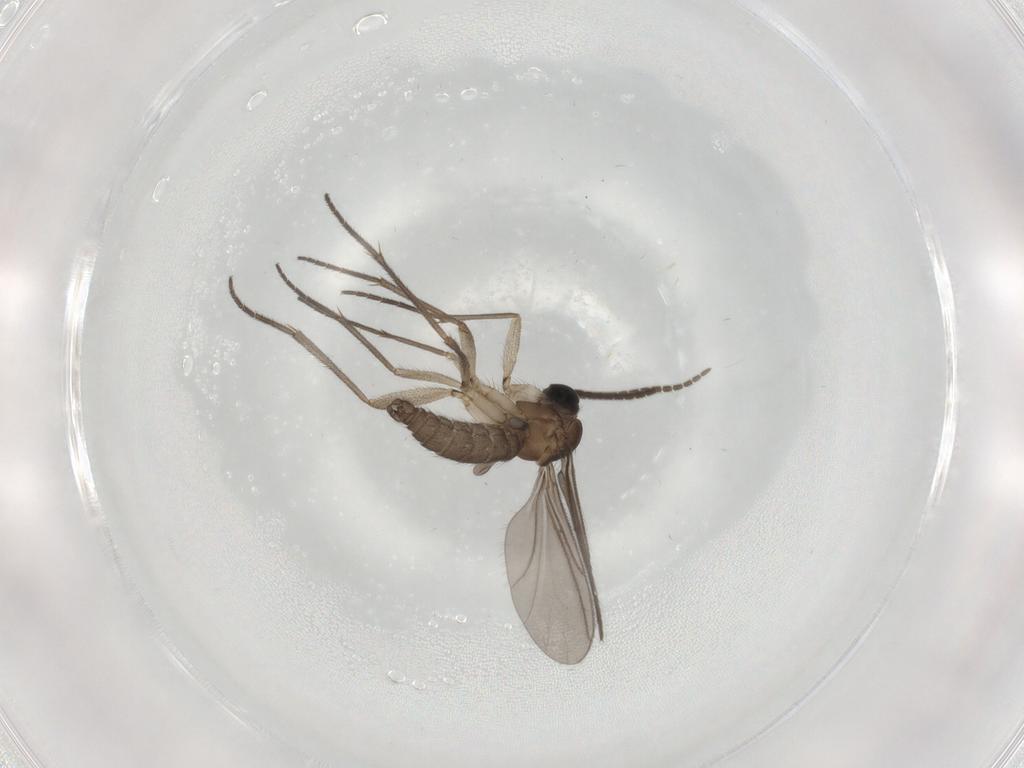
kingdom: Animalia
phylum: Arthropoda
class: Insecta
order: Diptera
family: Sciaridae
